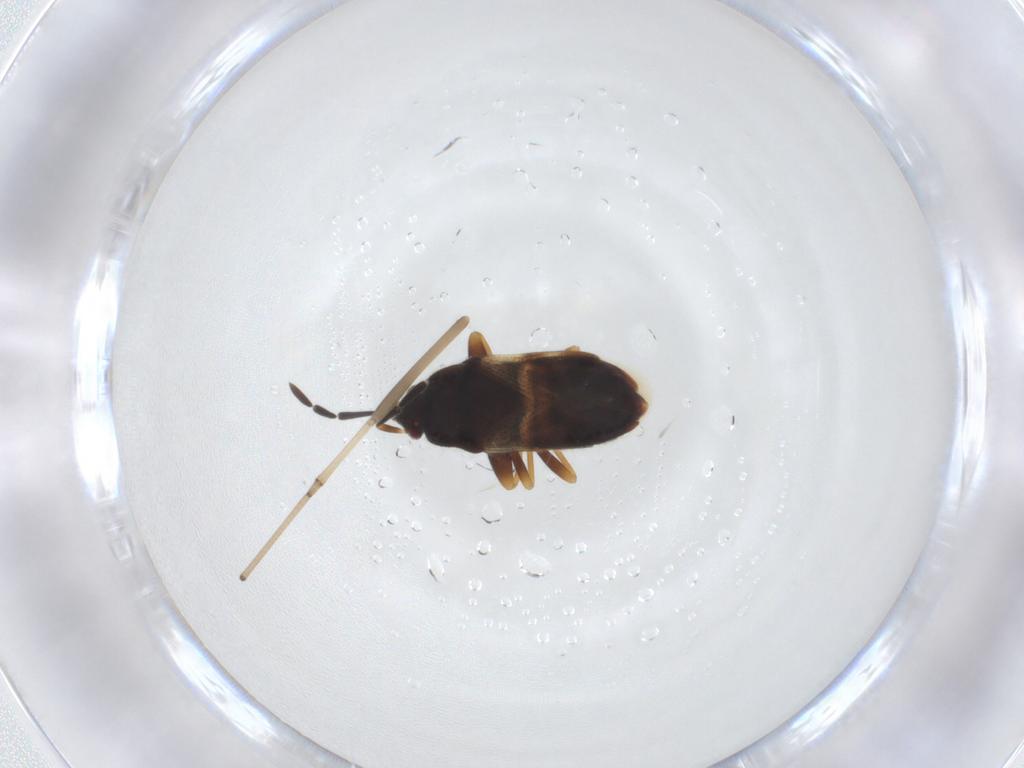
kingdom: Animalia
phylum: Arthropoda
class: Insecta
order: Hemiptera
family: Rhyparochromidae
